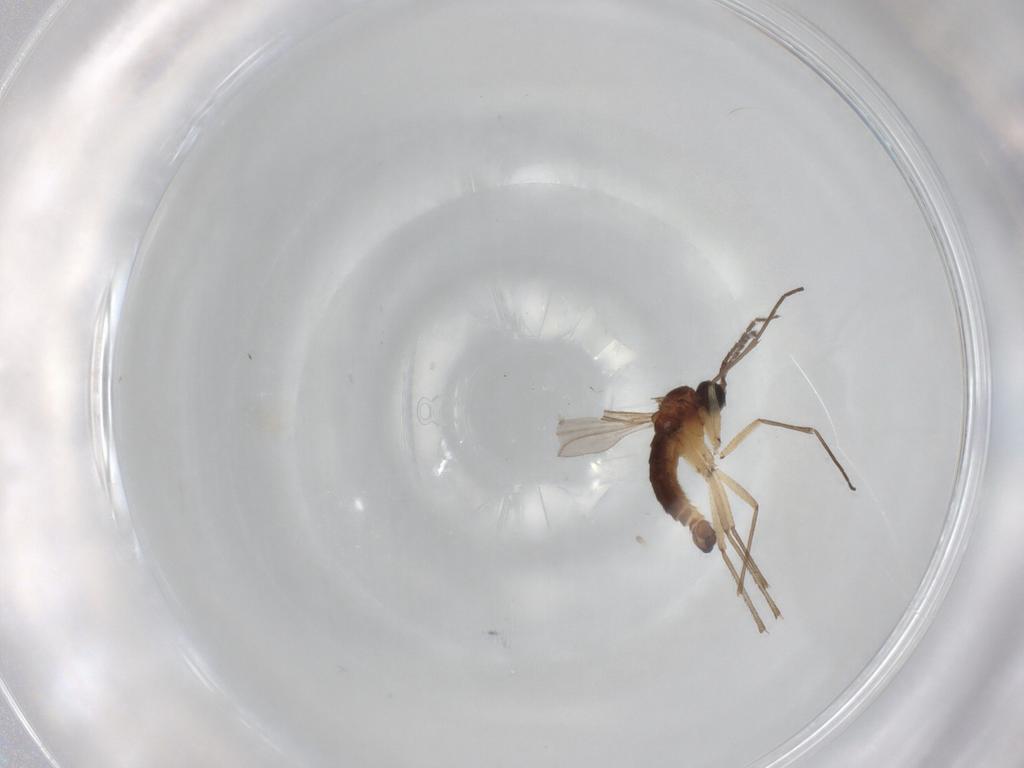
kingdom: Animalia
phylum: Arthropoda
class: Insecta
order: Diptera
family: Sciaridae
